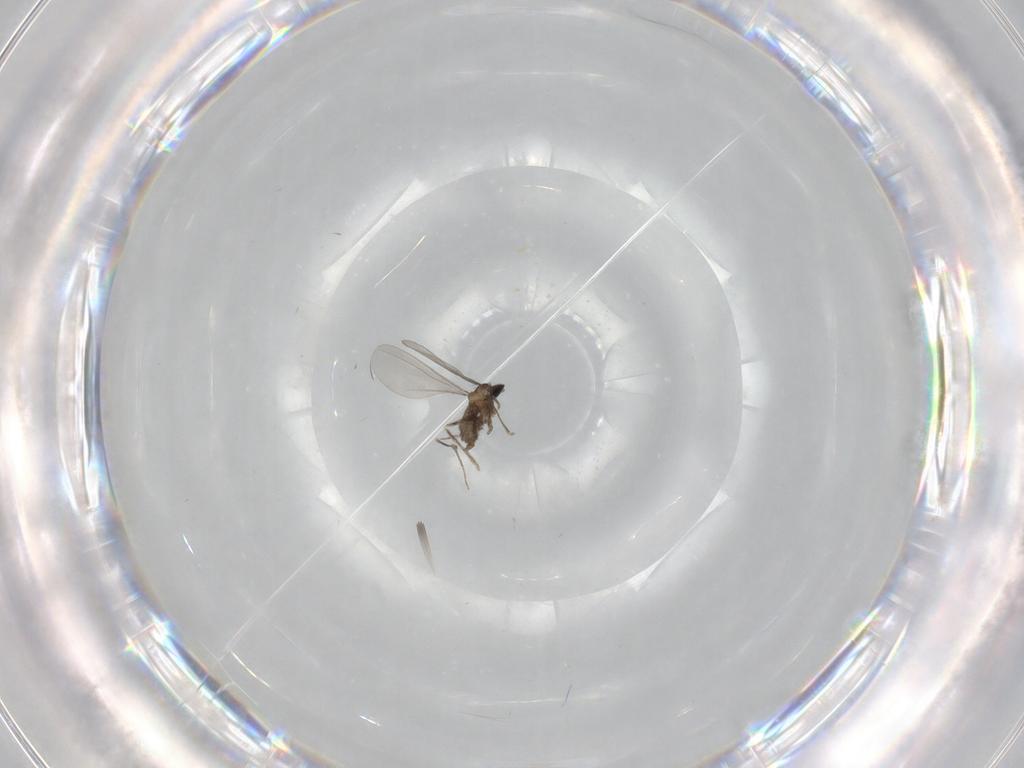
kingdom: Animalia
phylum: Arthropoda
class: Insecta
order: Diptera
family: Cecidomyiidae
